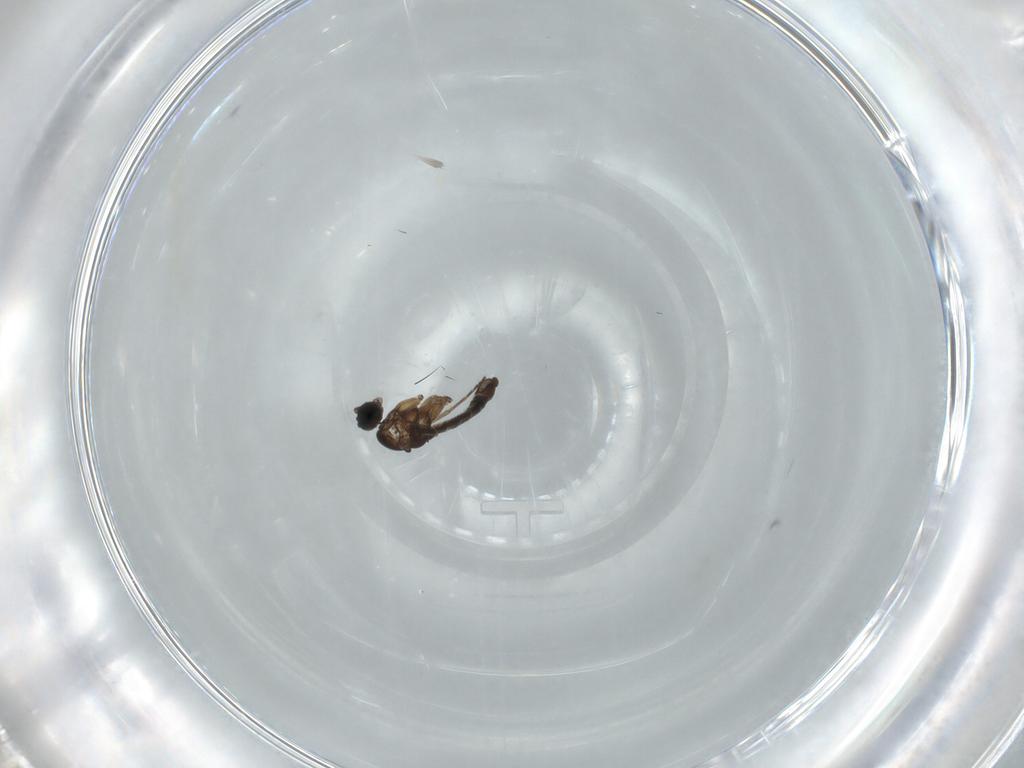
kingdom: Animalia
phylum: Arthropoda
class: Insecta
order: Diptera
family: Sciaridae
